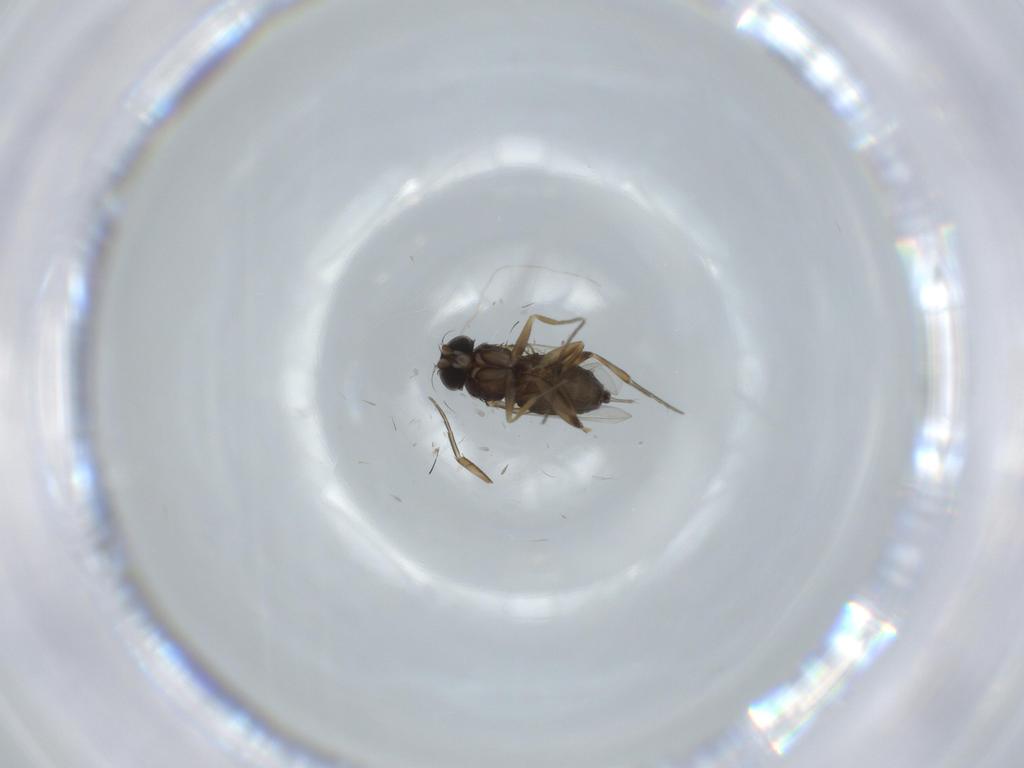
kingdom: Animalia
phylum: Arthropoda
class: Insecta
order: Diptera
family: Phoridae
